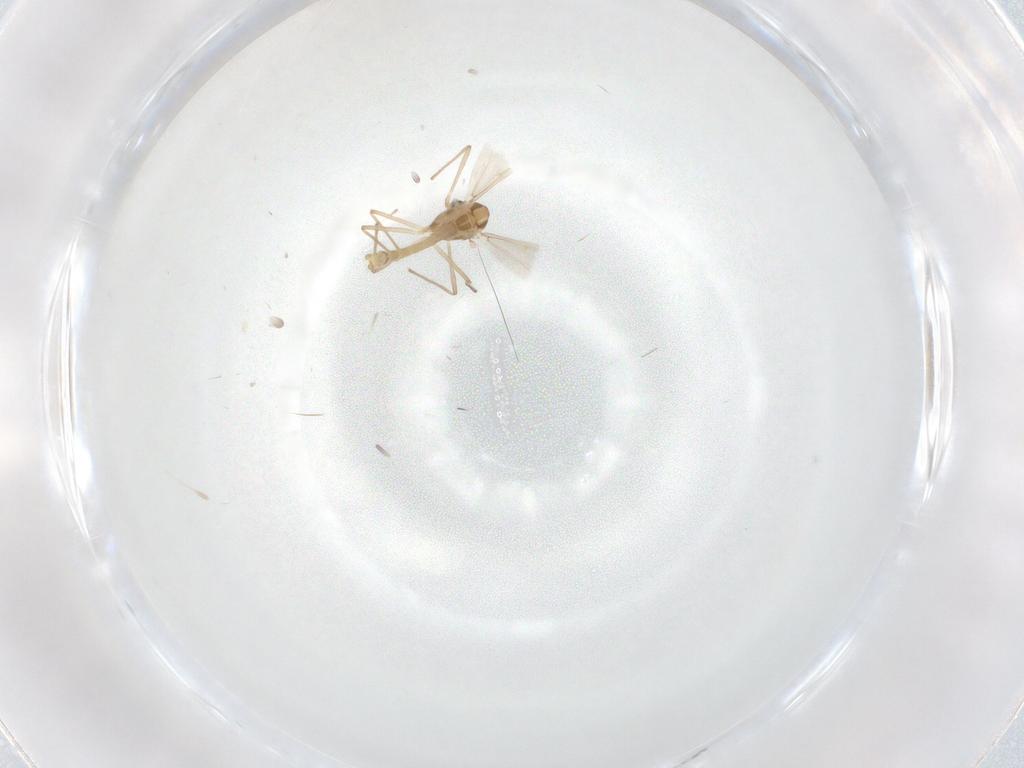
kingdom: Animalia
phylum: Arthropoda
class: Insecta
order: Diptera
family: Chironomidae
